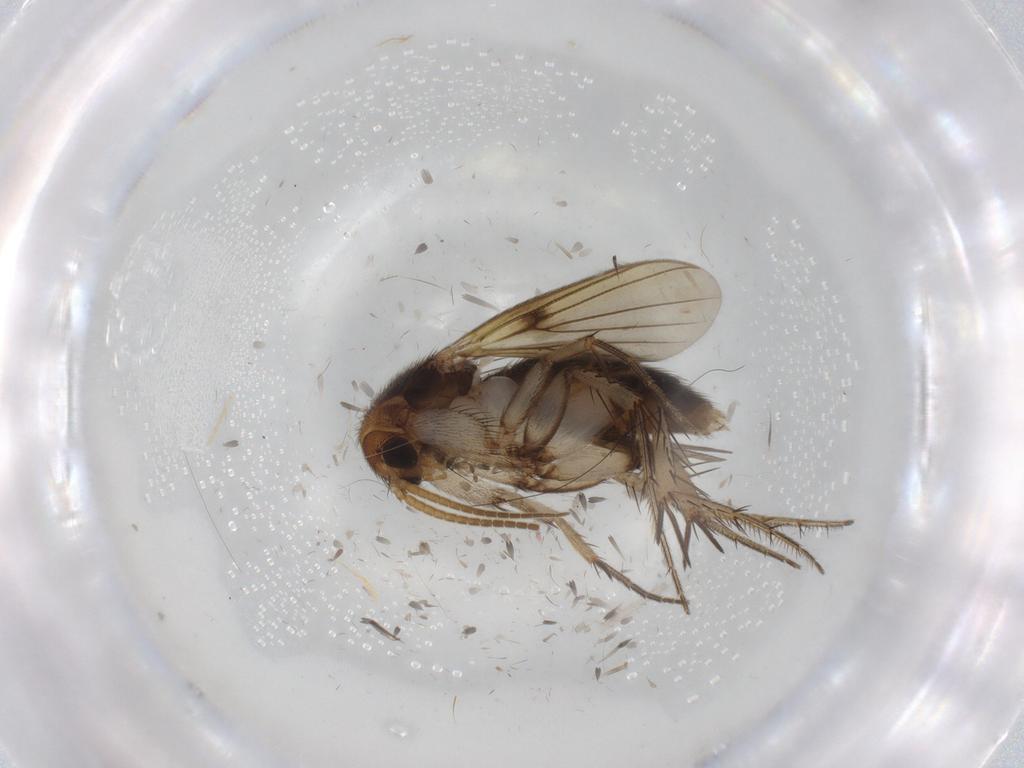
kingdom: Animalia
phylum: Arthropoda
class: Insecta
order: Diptera
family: Mycetophilidae
